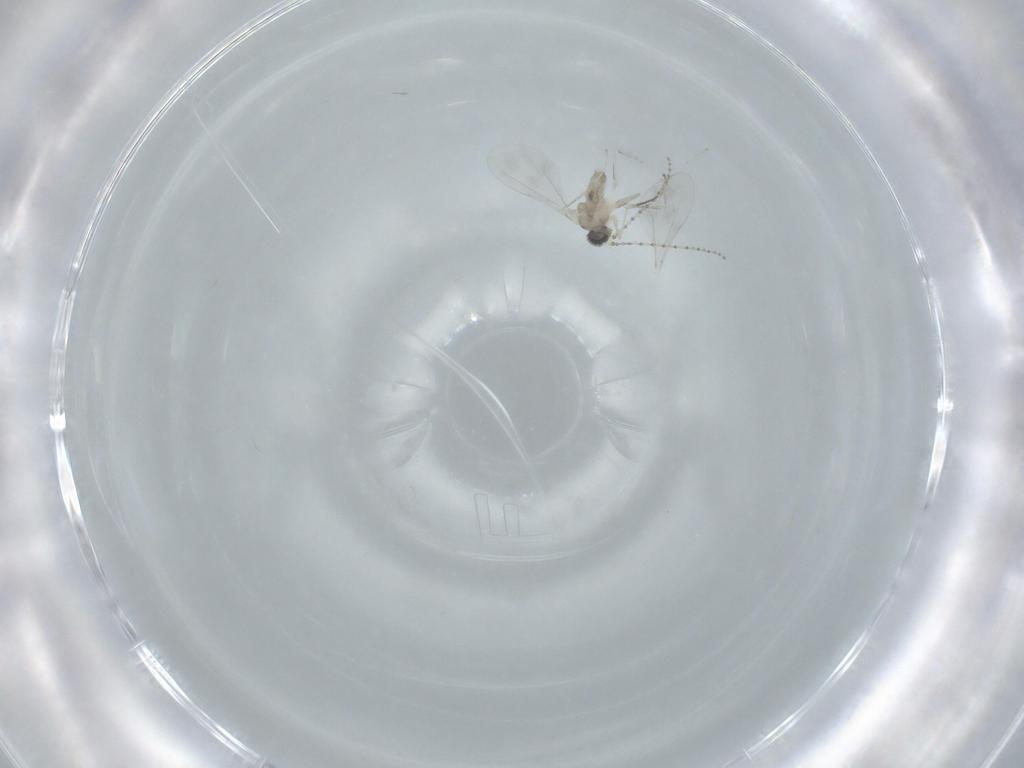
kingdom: Animalia
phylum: Arthropoda
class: Insecta
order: Diptera
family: Cecidomyiidae
